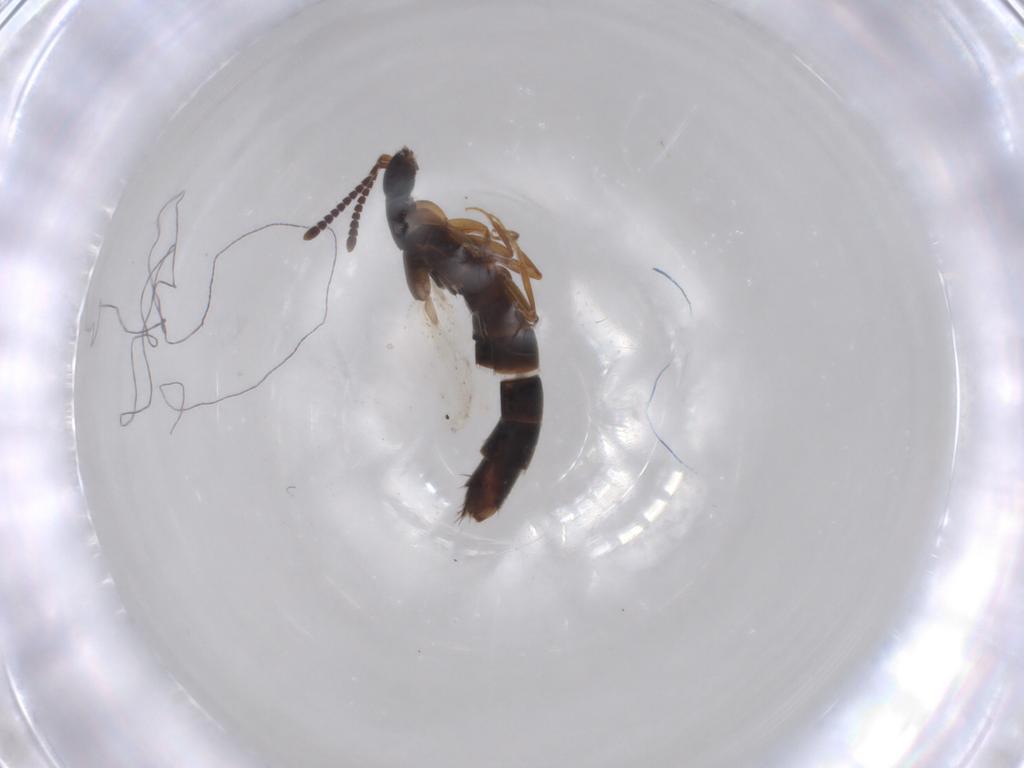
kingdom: Animalia
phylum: Arthropoda
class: Insecta
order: Coleoptera
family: Staphylinidae
